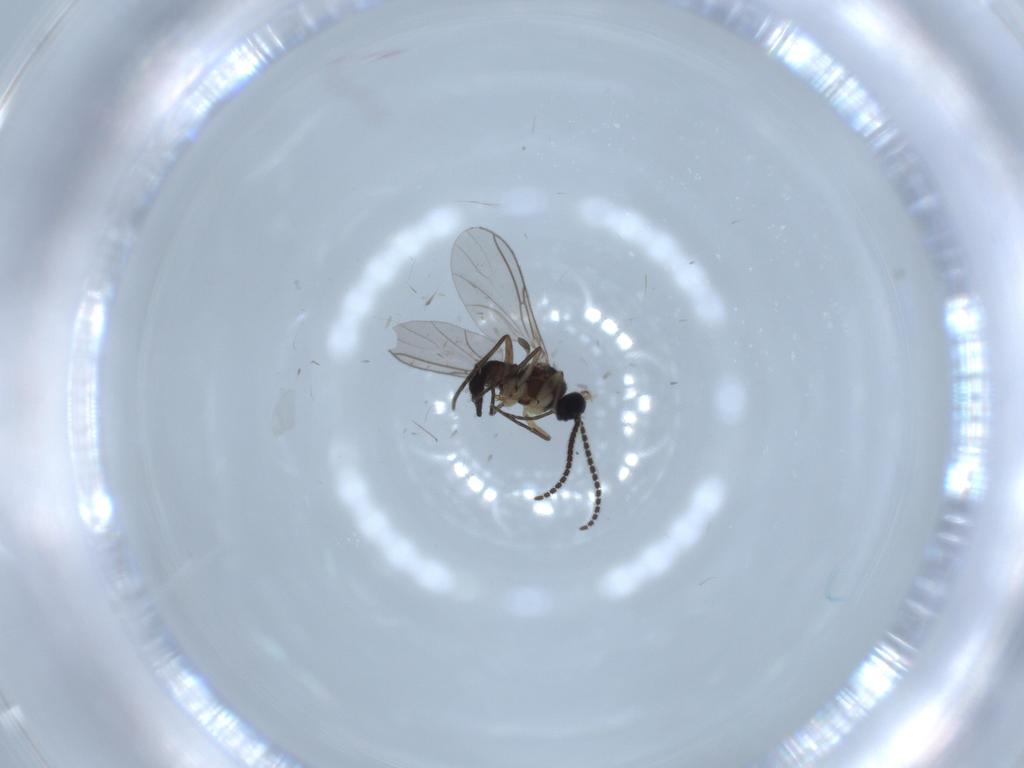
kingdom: Animalia
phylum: Arthropoda
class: Insecta
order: Diptera
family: Sciaridae
